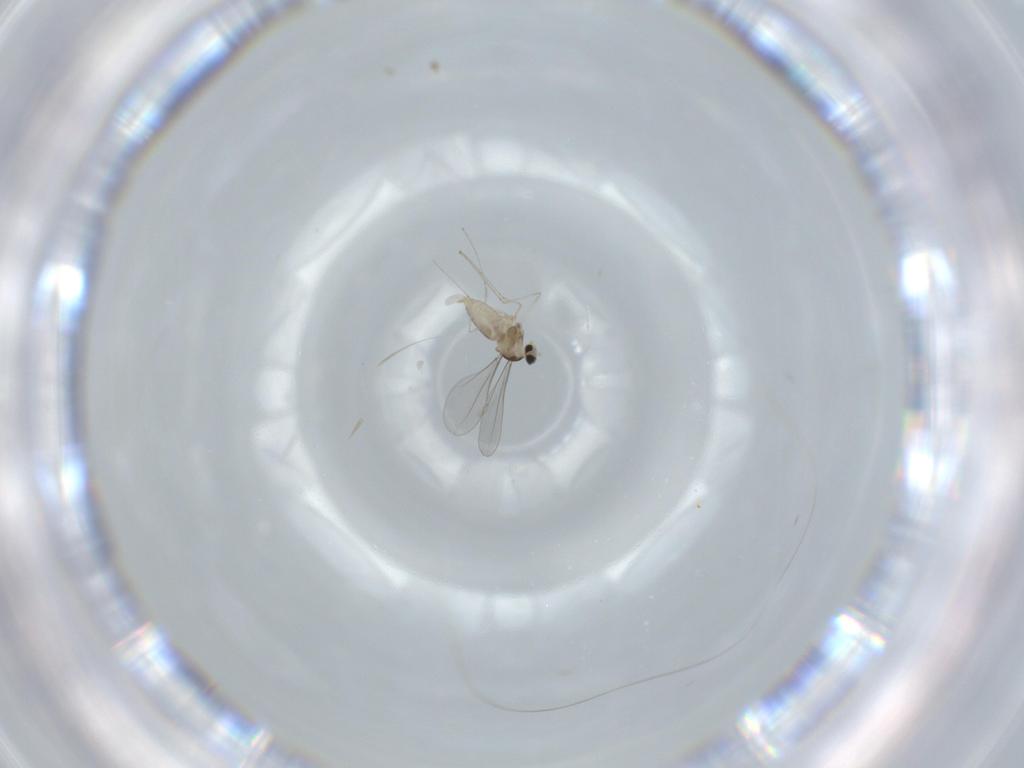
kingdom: Animalia
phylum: Arthropoda
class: Insecta
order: Diptera
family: Cecidomyiidae
